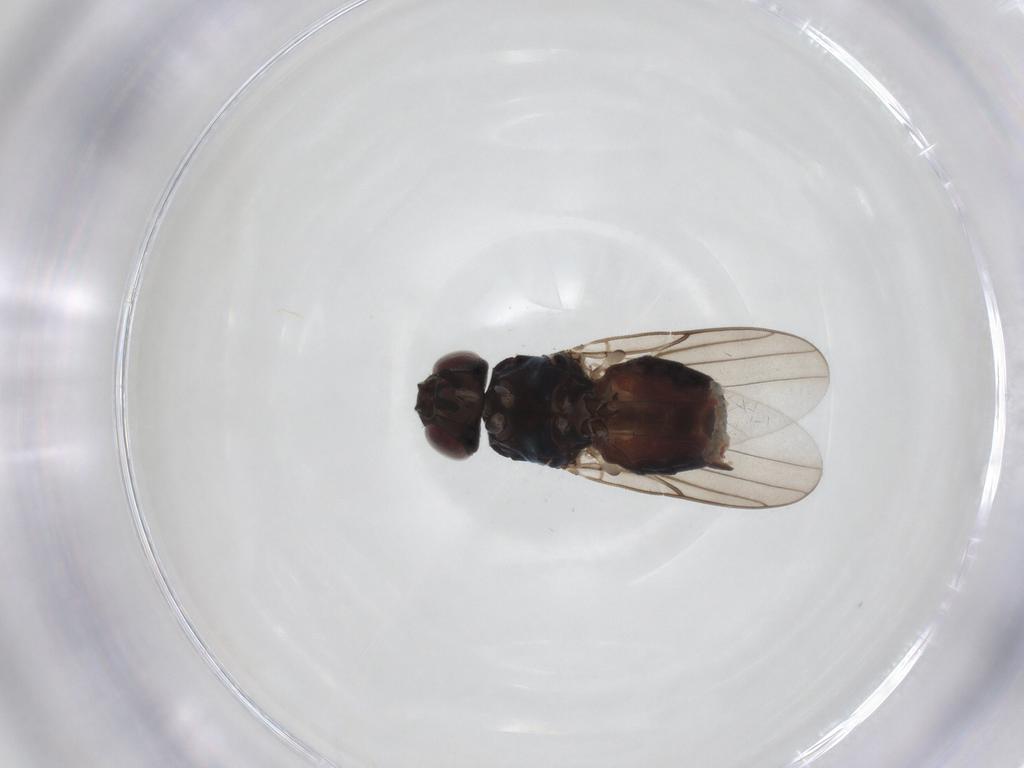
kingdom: Animalia
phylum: Arthropoda
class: Insecta
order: Diptera
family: Chloropidae
